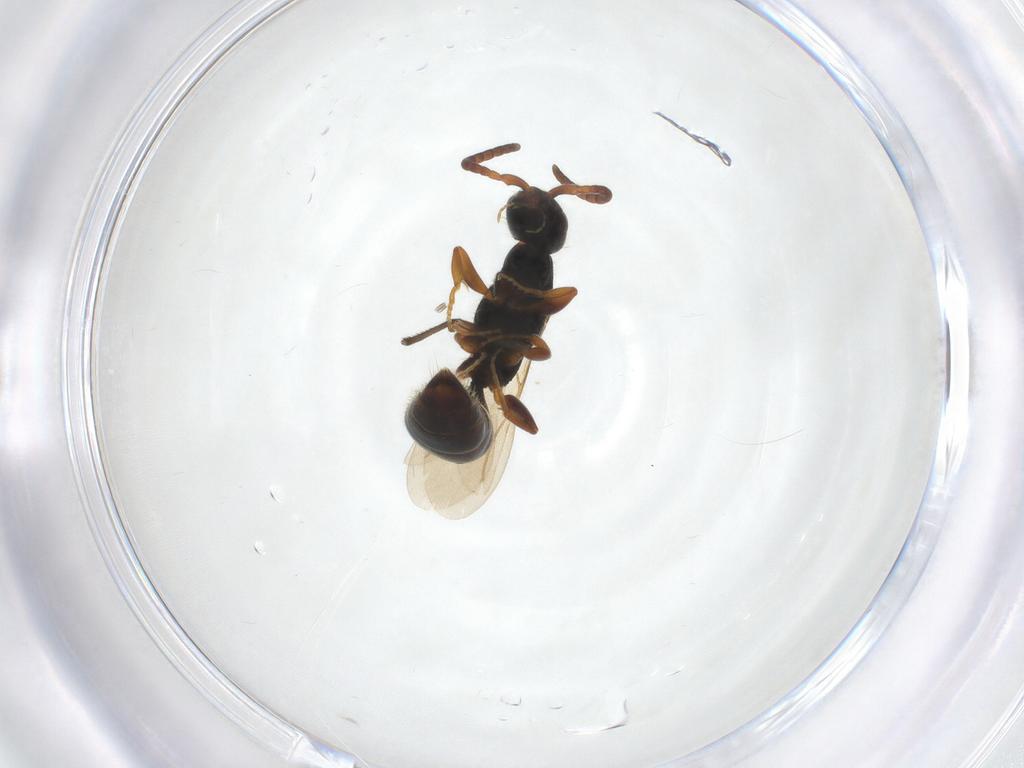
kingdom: Animalia
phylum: Arthropoda
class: Insecta
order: Hymenoptera
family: Bethylidae
